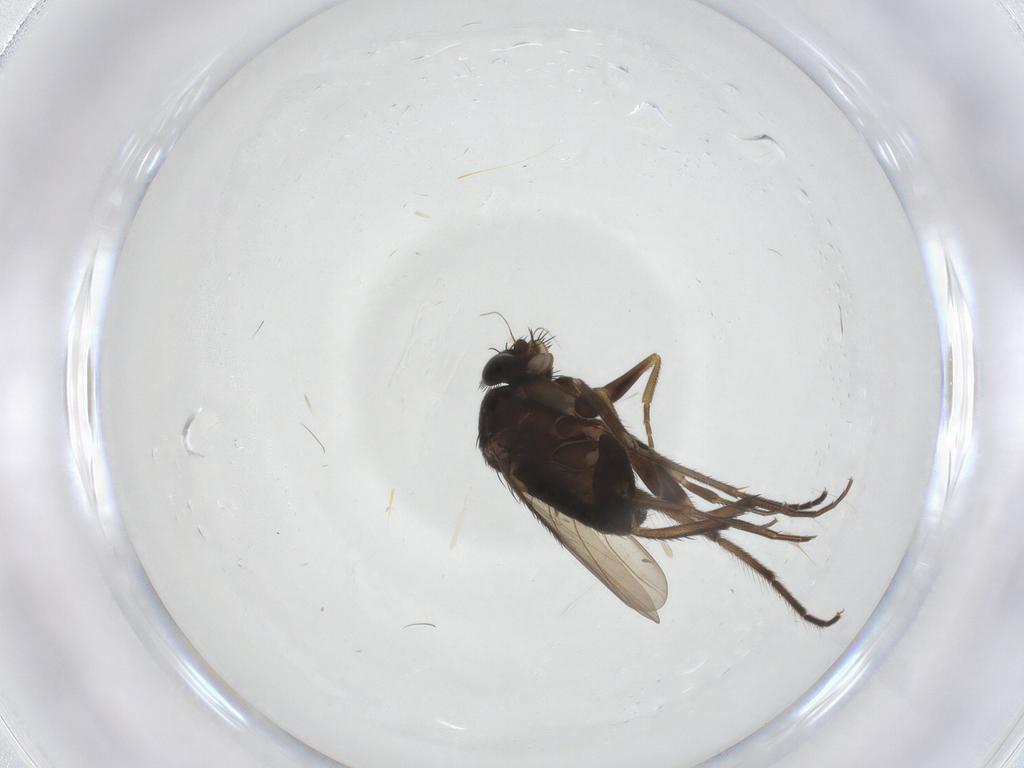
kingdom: Animalia
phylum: Arthropoda
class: Insecta
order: Diptera
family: Phoridae
